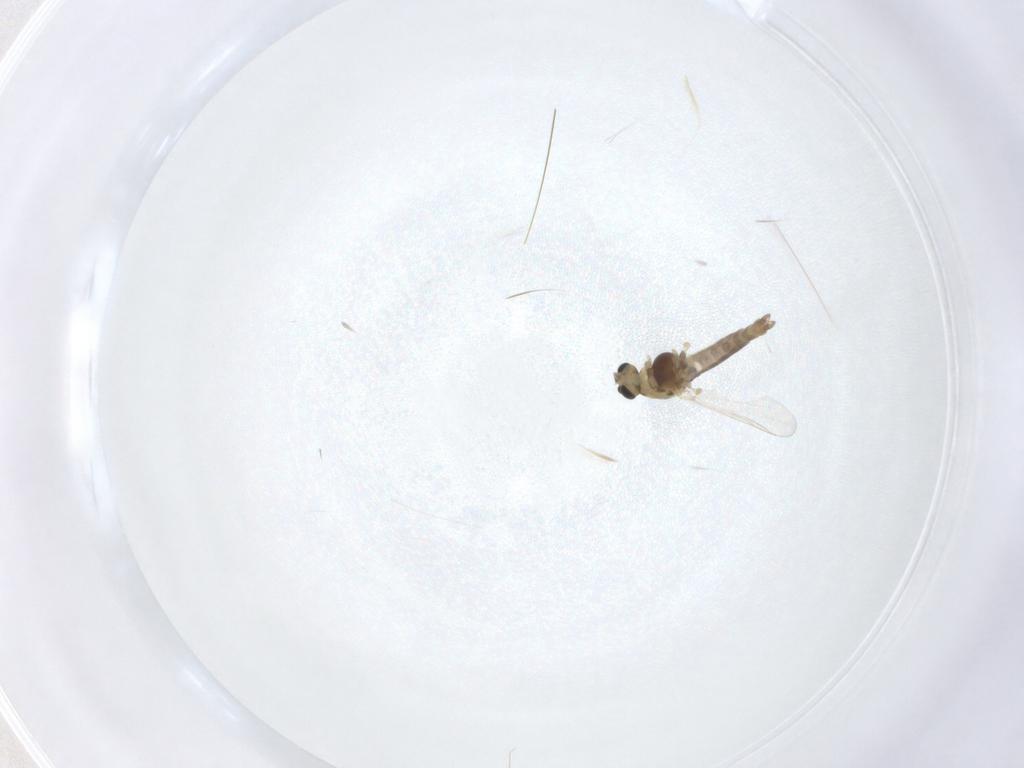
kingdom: Animalia
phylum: Arthropoda
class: Insecta
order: Diptera
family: Chironomidae
